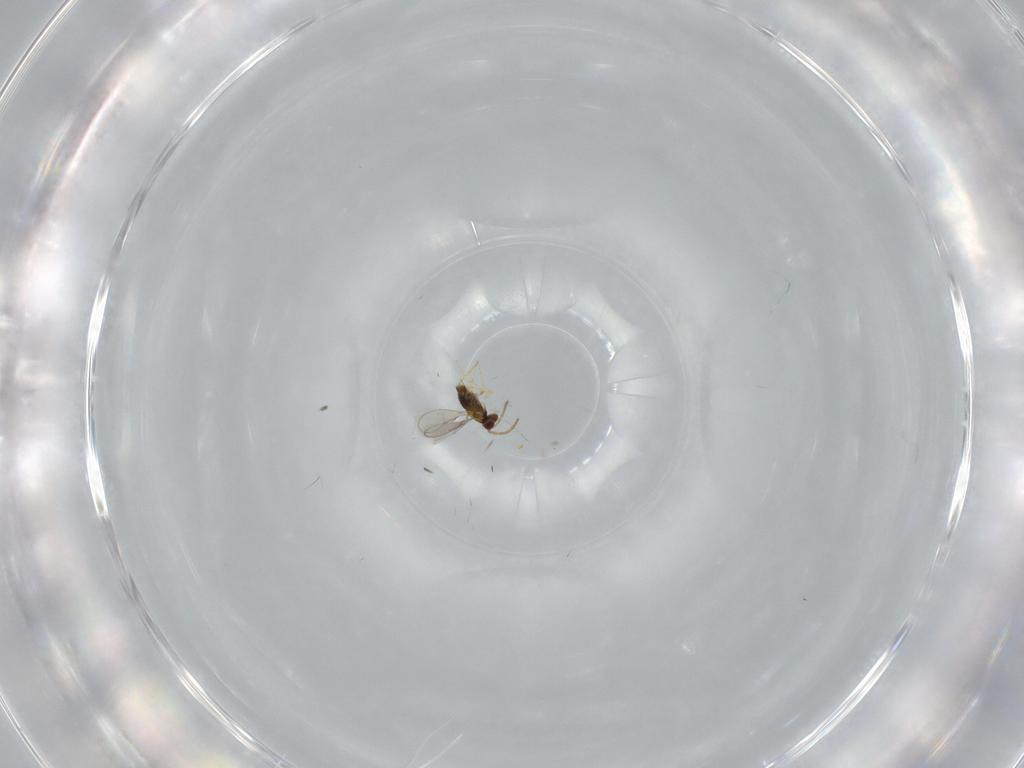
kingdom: Animalia
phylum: Arthropoda
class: Insecta
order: Hymenoptera
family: Aphelinidae
